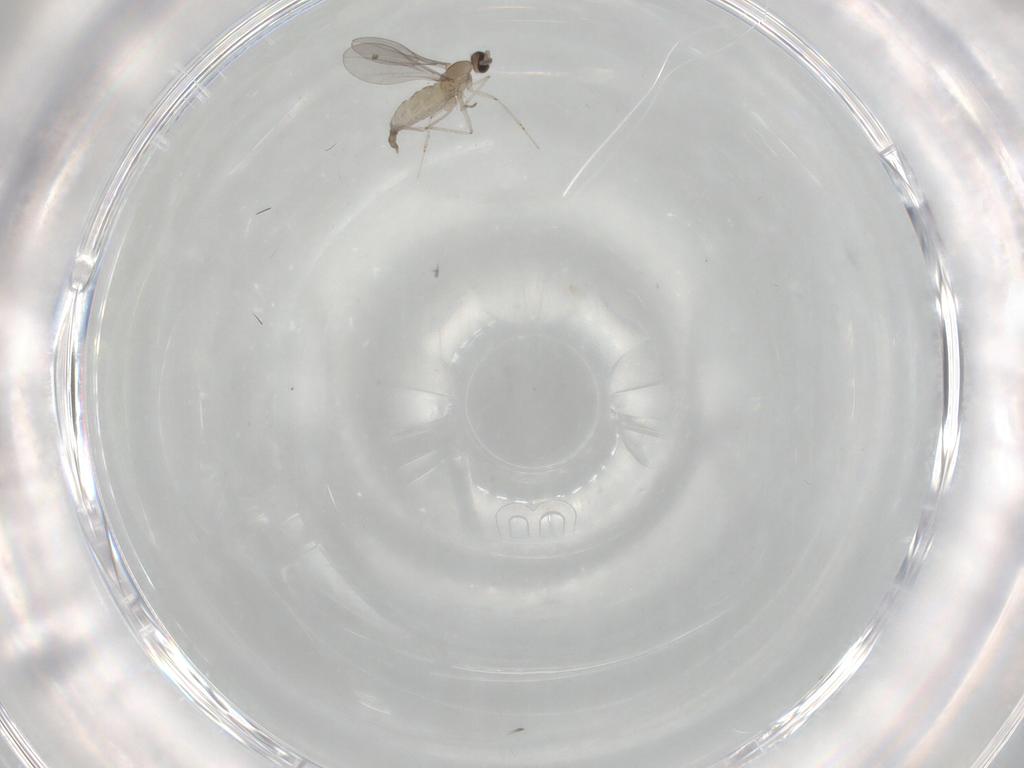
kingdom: Animalia
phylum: Arthropoda
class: Insecta
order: Diptera
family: Cecidomyiidae
